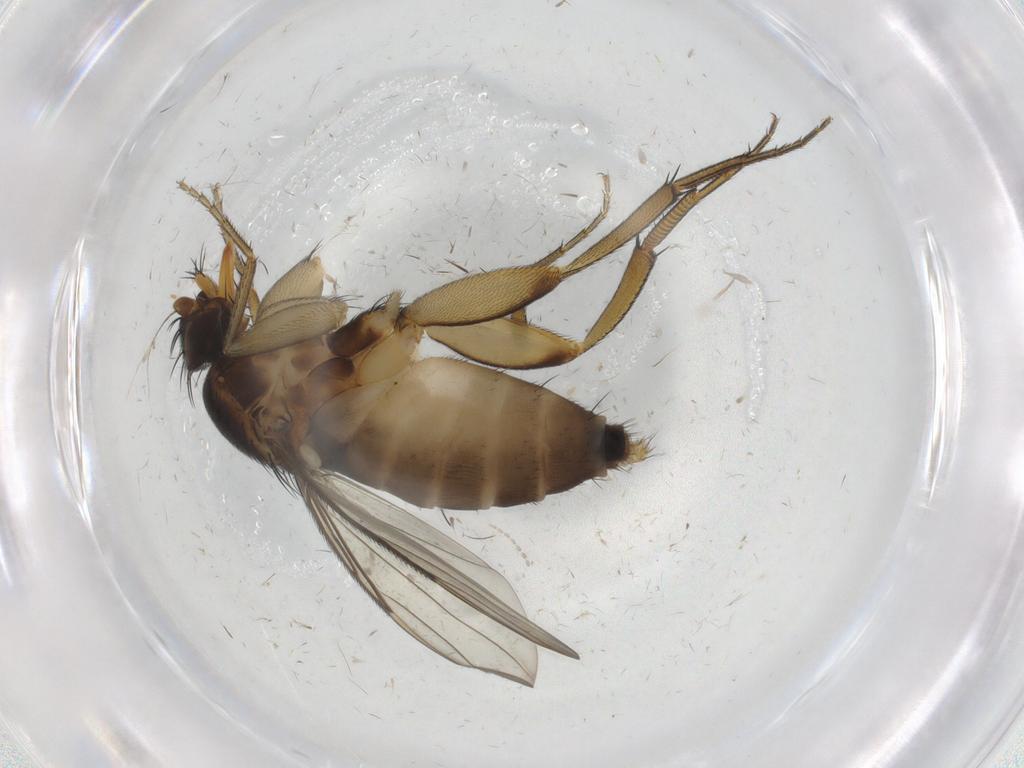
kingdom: Animalia
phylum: Arthropoda
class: Insecta
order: Diptera
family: Phoridae
